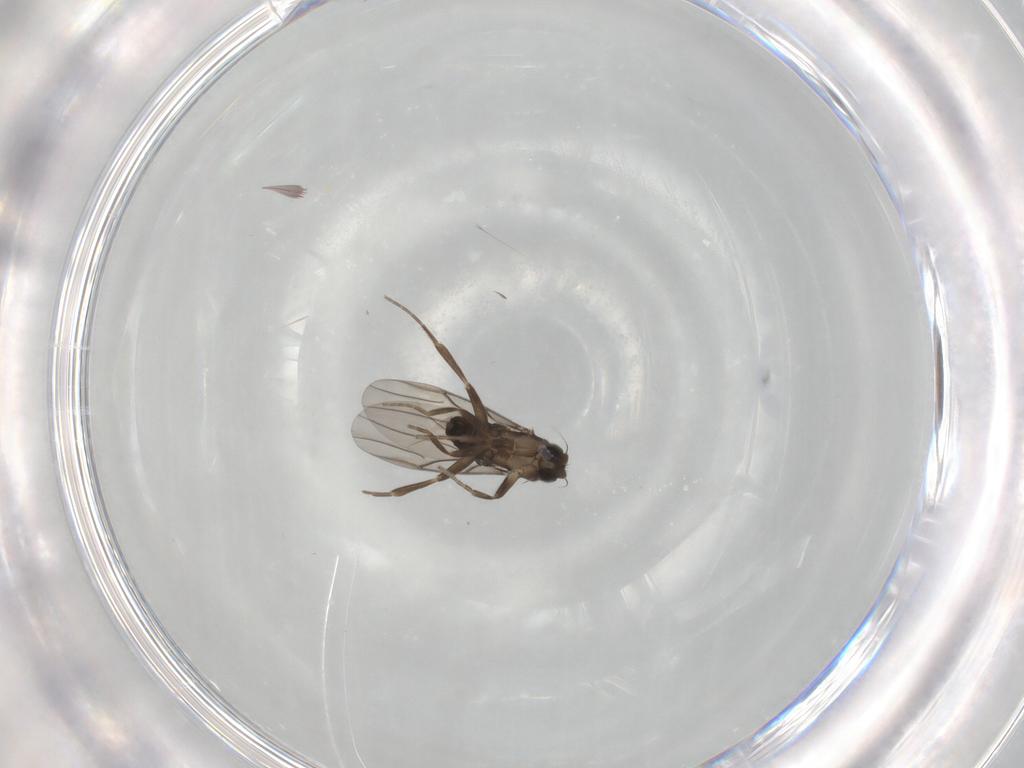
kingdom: Animalia
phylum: Arthropoda
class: Insecta
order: Diptera
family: Phoridae
